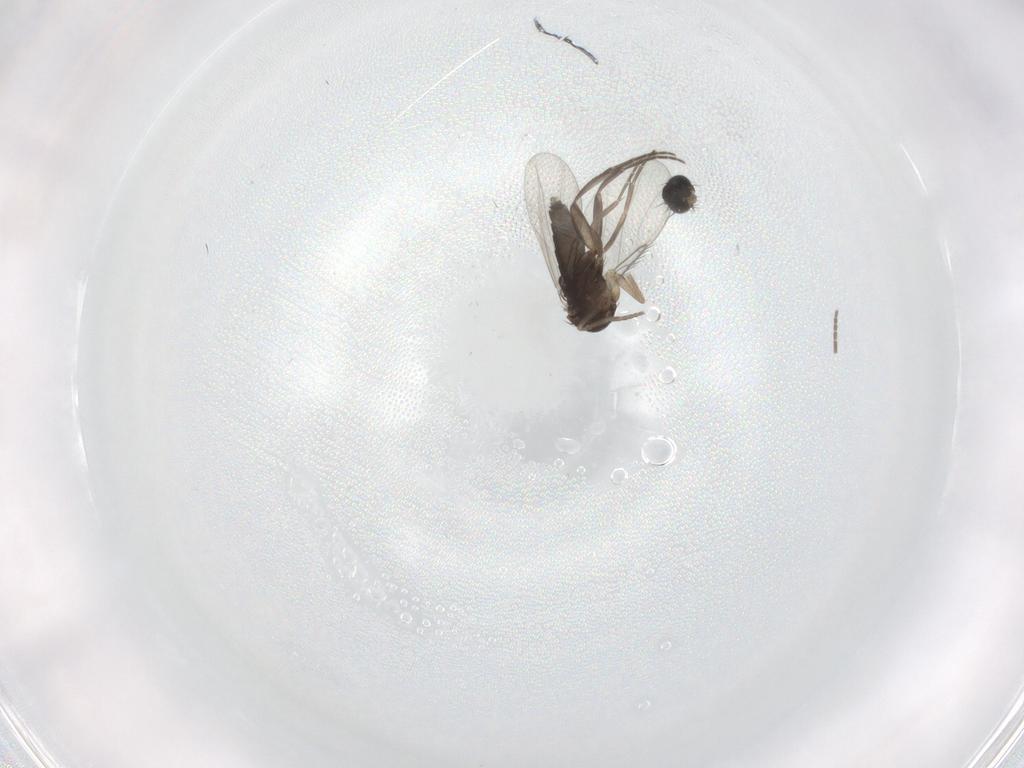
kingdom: Animalia
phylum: Arthropoda
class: Insecta
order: Diptera
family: Phoridae
